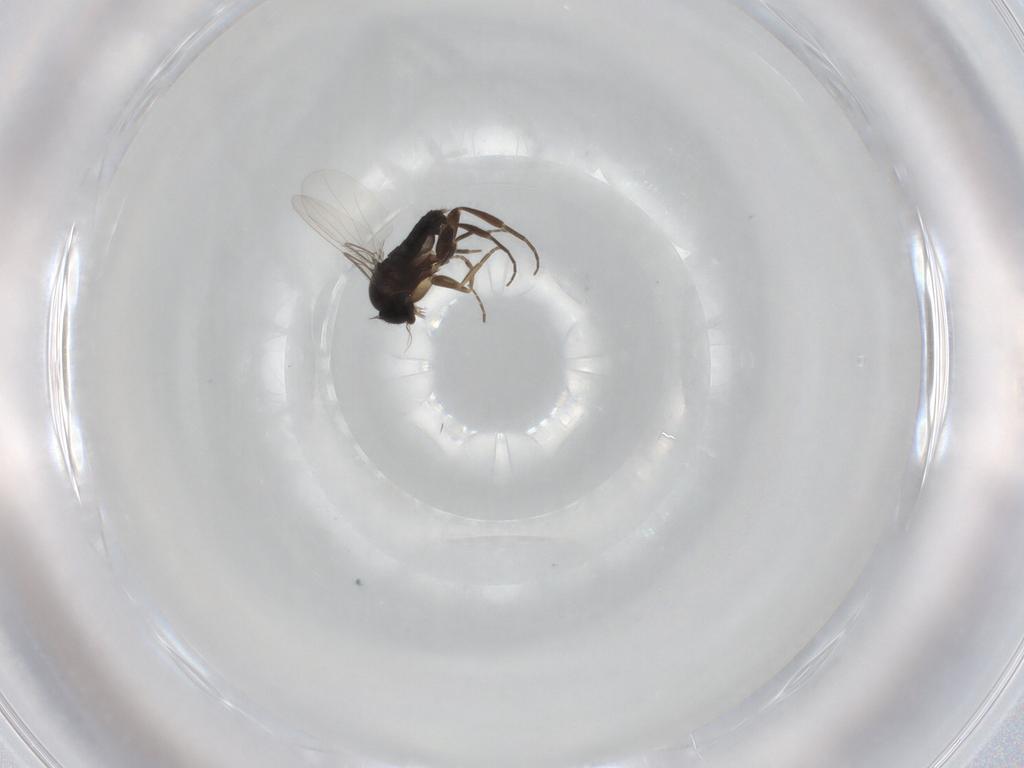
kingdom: Animalia
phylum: Arthropoda
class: Insecta
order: Diptera
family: Phoridae
